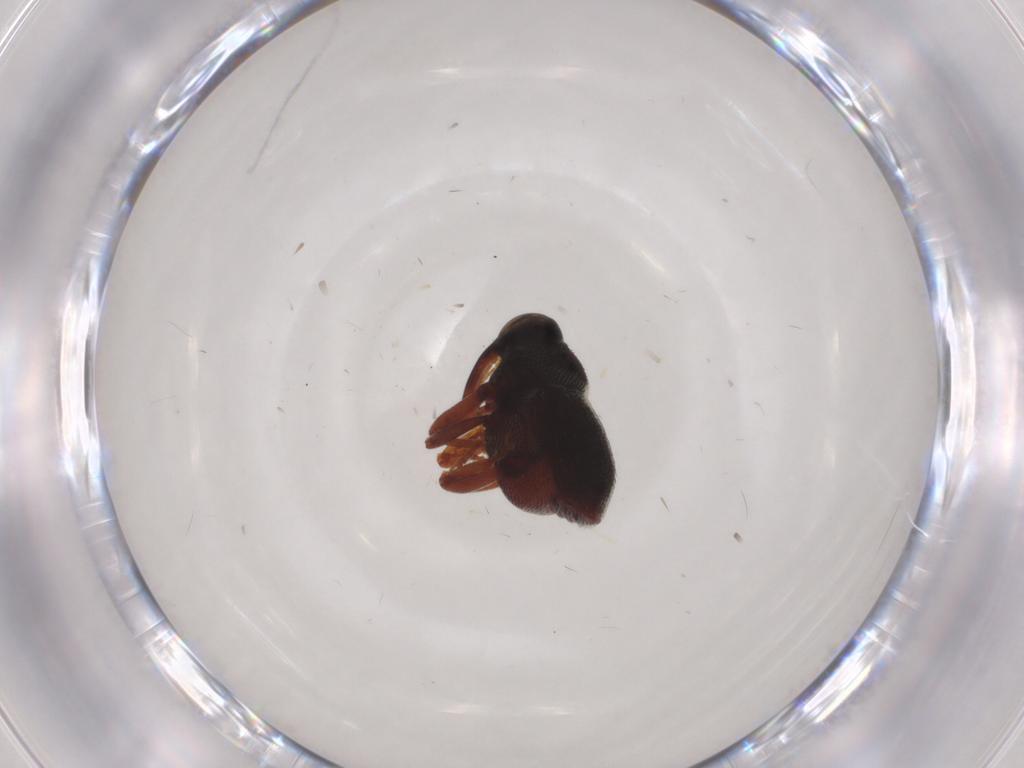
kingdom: Animalia
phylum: Arthropoda
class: Insecta
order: Coleoptera
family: Curculionidae
